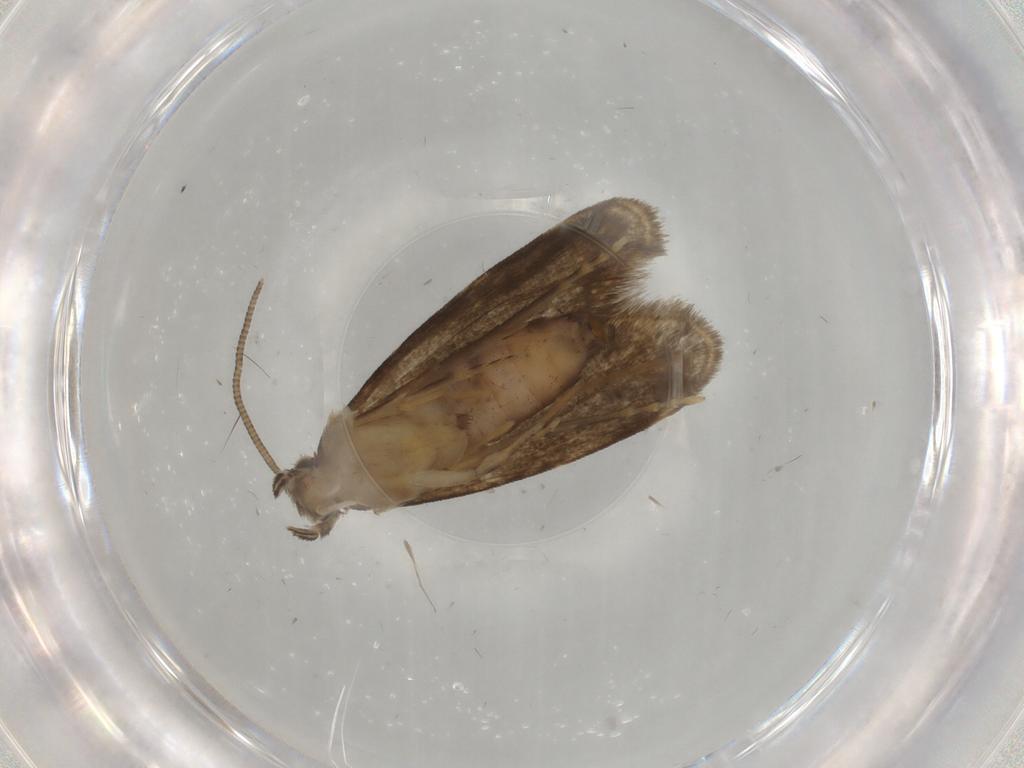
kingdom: Animalia
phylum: Arthropoda
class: Insecta
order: Lepidoptera
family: Dryadaulidae
